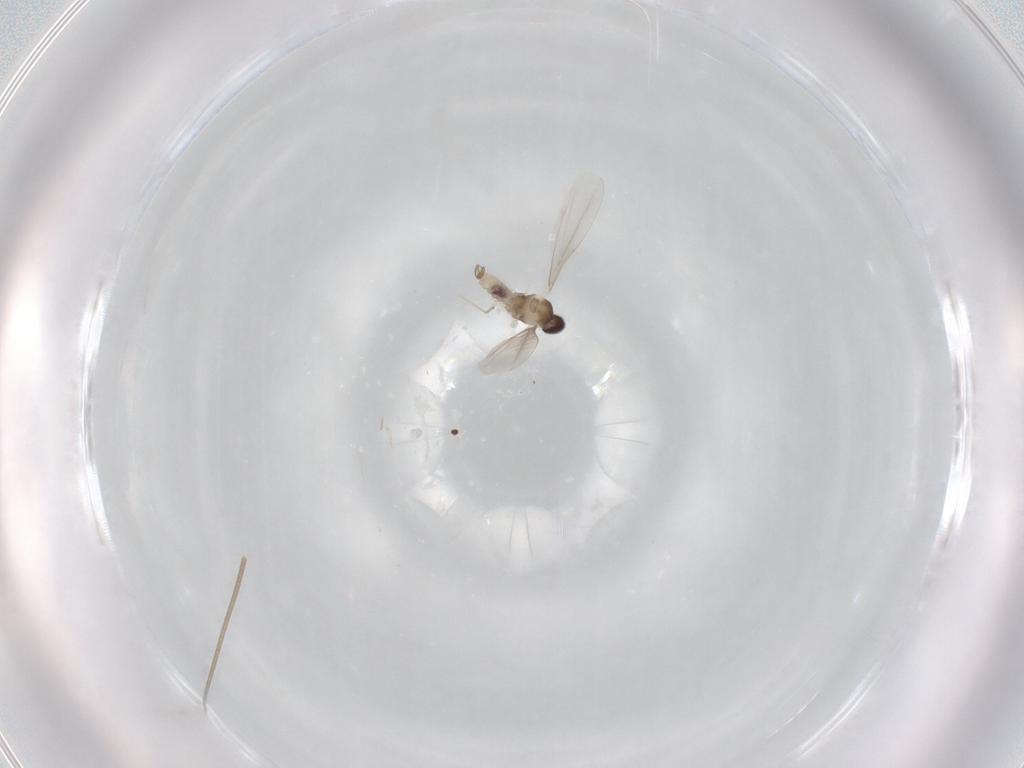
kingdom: Animalia
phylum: Arthropoda
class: Insecta
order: Diptera
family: Cecidomyiidae
